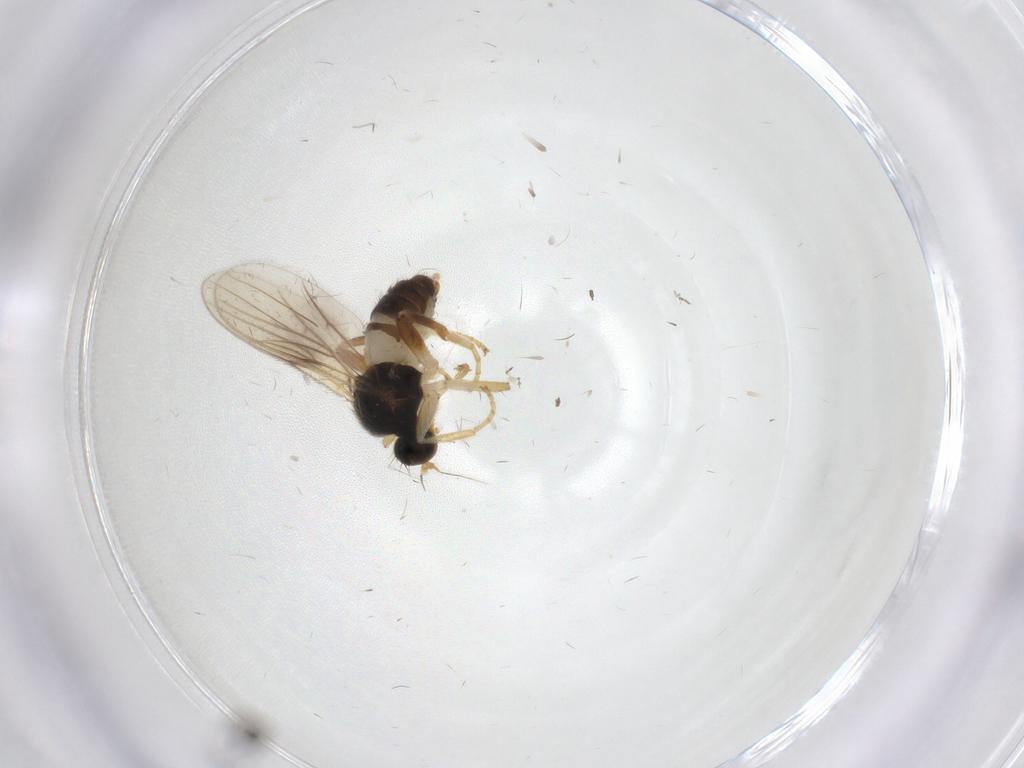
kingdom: Animalia
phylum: Arthropoda
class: Insecta
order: Diptera
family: Hybotidae
